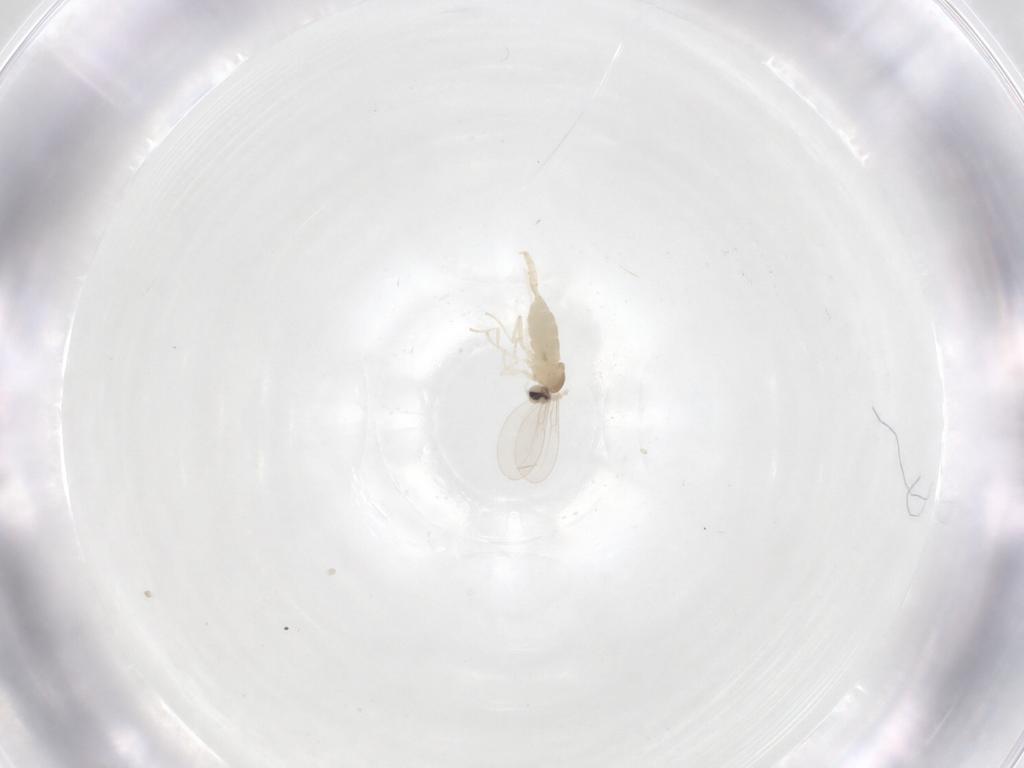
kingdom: Animalia
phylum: Arthropoda
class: Insecta
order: Diptera
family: Cecidomyiidae
